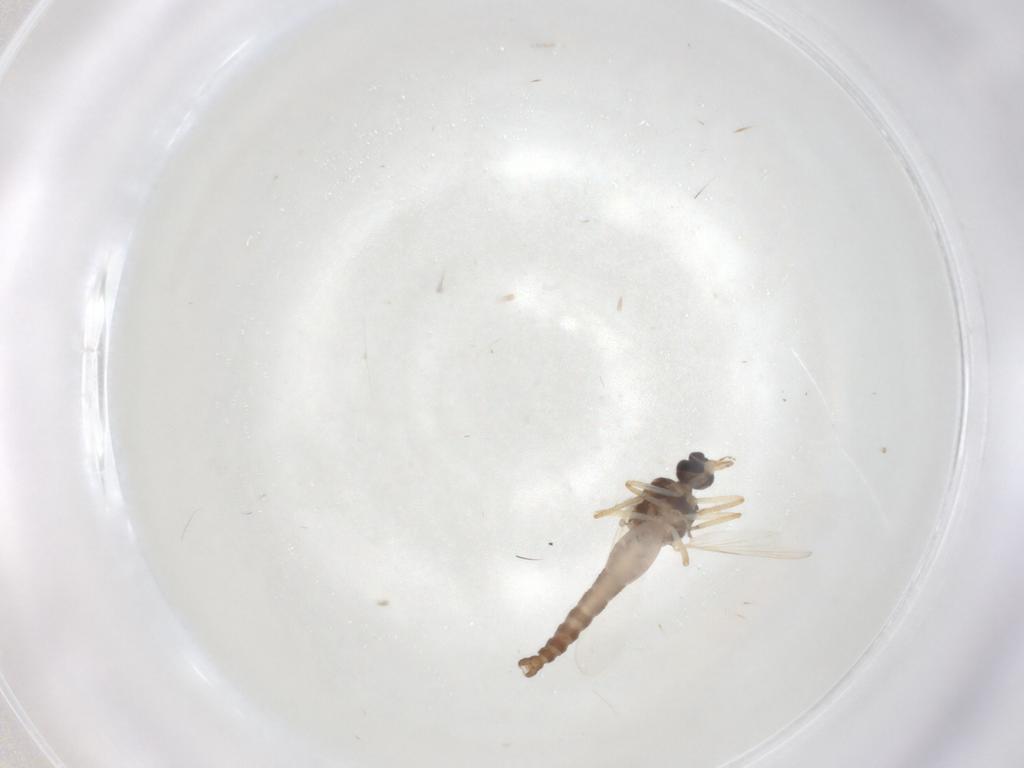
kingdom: Animalia
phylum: Arthropoda
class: Insecta
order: Diptera
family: Ceratopogonidae
